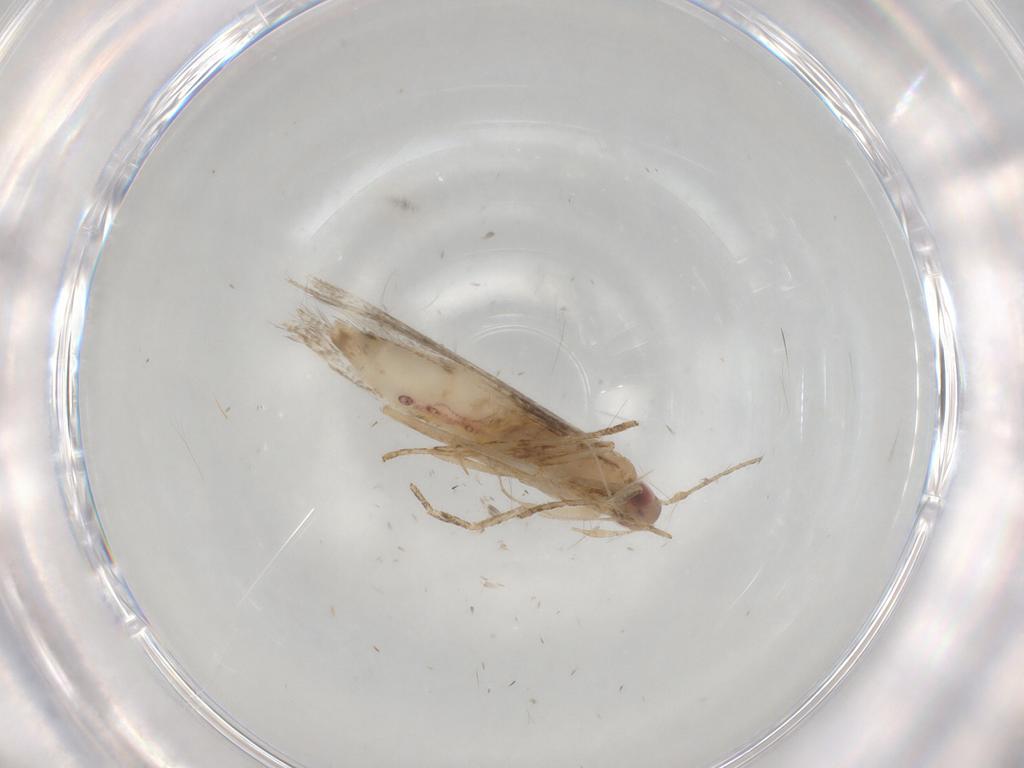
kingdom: Animalia
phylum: Arthropoda
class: Insecta
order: Lepidoptera
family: Cosmopterigidae
